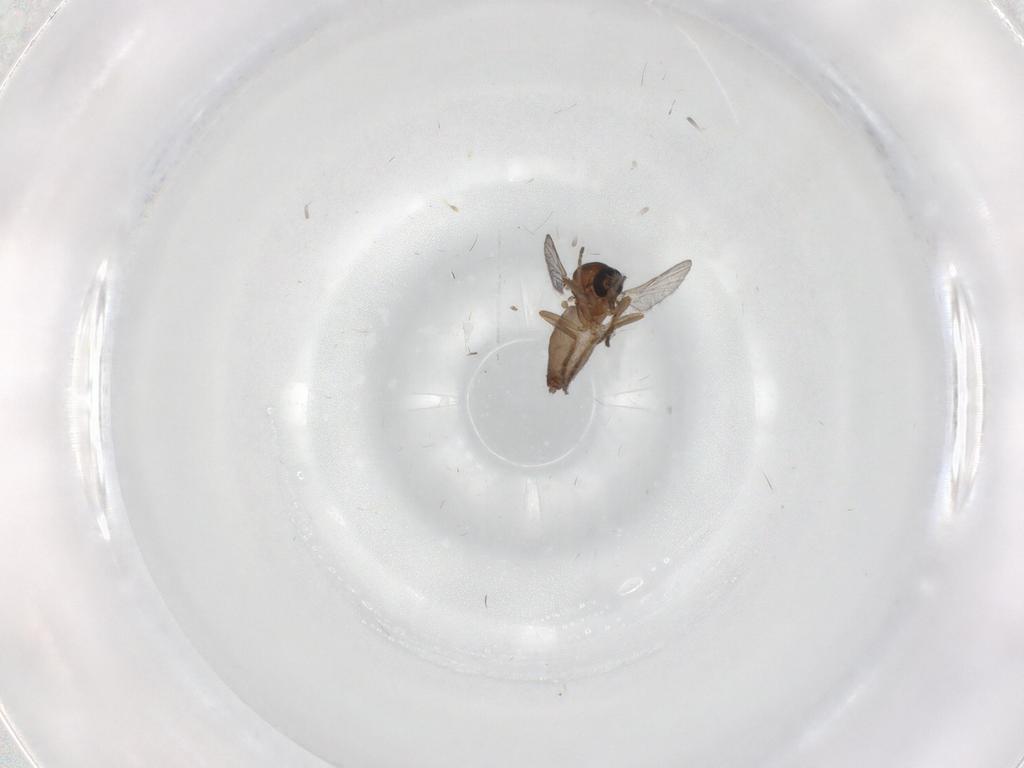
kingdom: Animalia
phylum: Arthropoda
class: Insecta
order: Diptera
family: Ceratopogonidae
